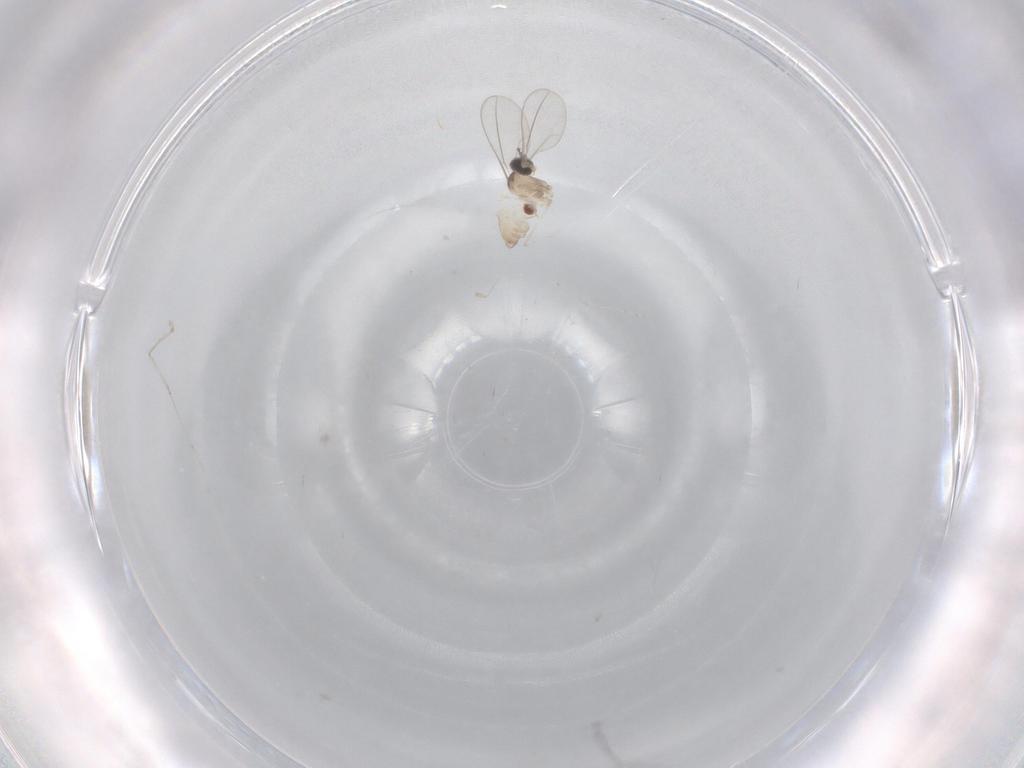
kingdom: Animalia
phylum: Arthropoda
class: Insecta
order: Diptera
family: Cecidomyiidae
